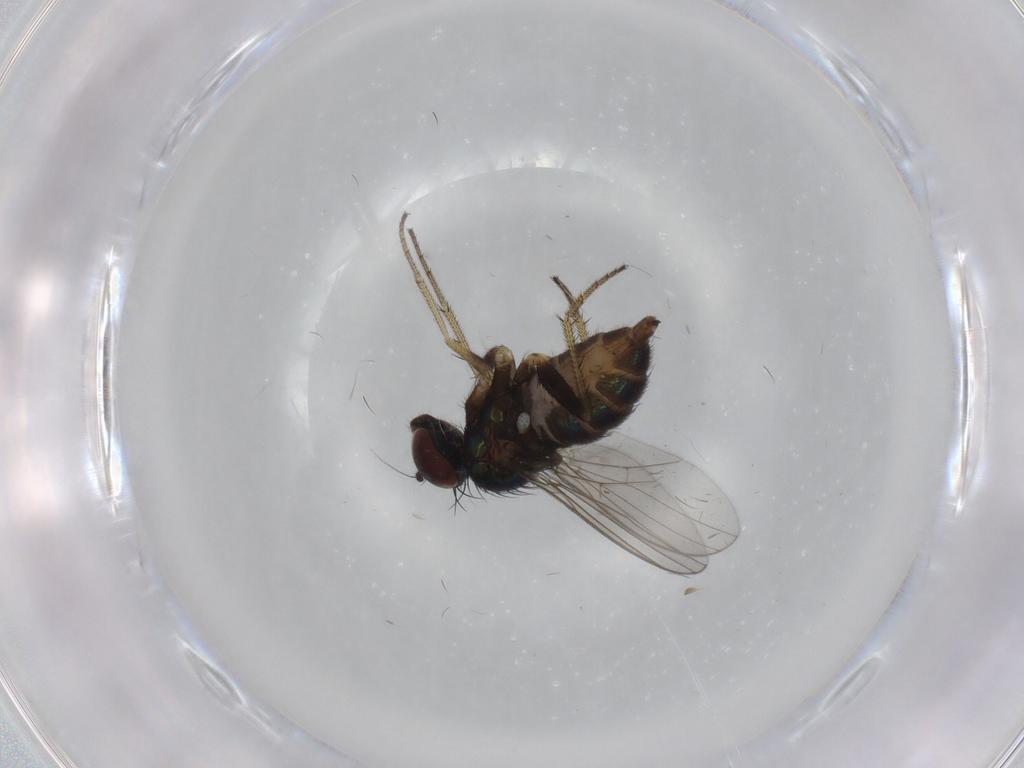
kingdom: Animalia
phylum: Arthropoda
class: Insecta
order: Diptera
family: Dolichopodidae
